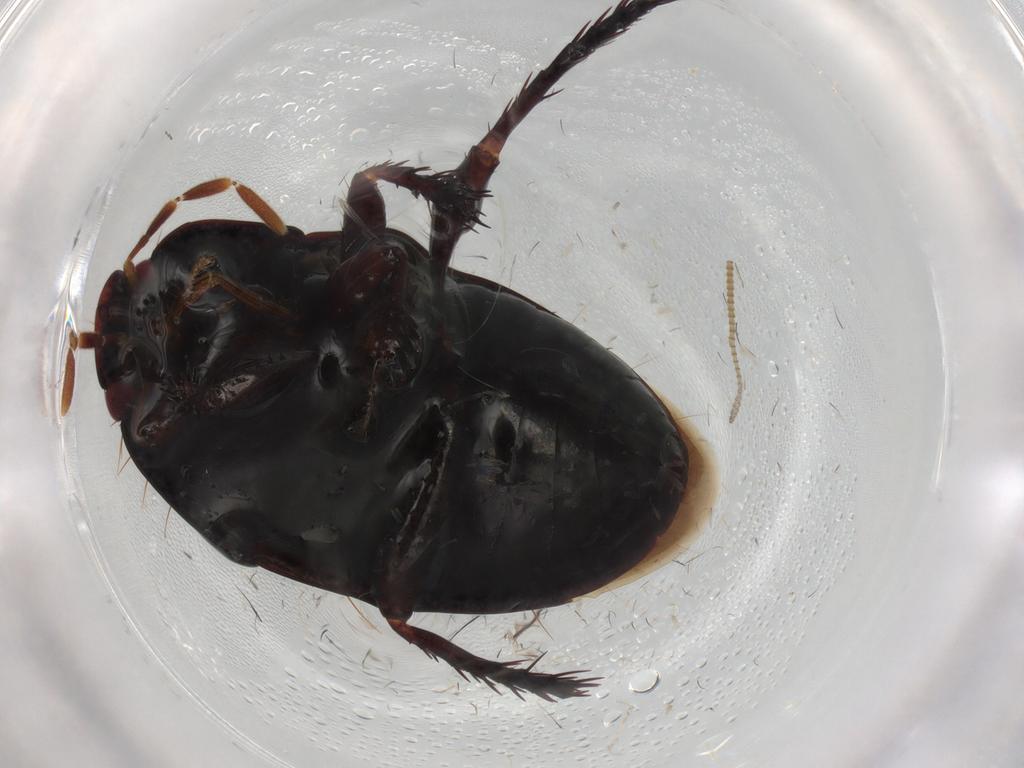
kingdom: Animalia
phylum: Arthropoda
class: Insecta
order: Hemiptera
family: Cydnidae
